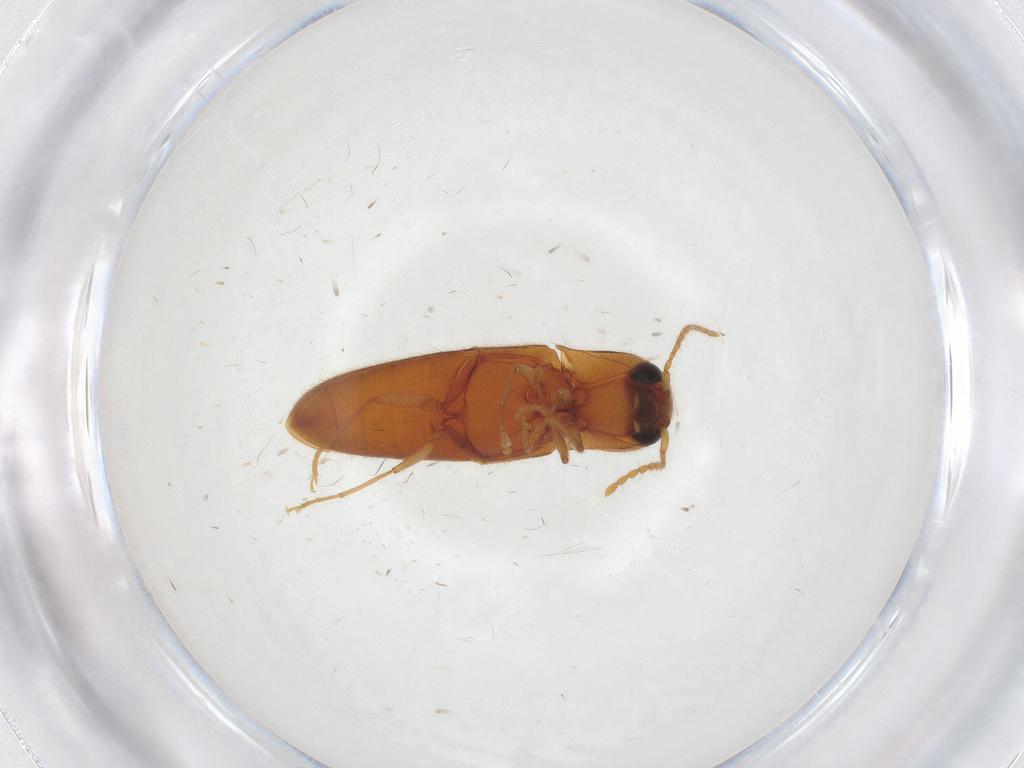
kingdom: Animalia
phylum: Arthropoda
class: Insecta
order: Coleoptera
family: Elateridae
